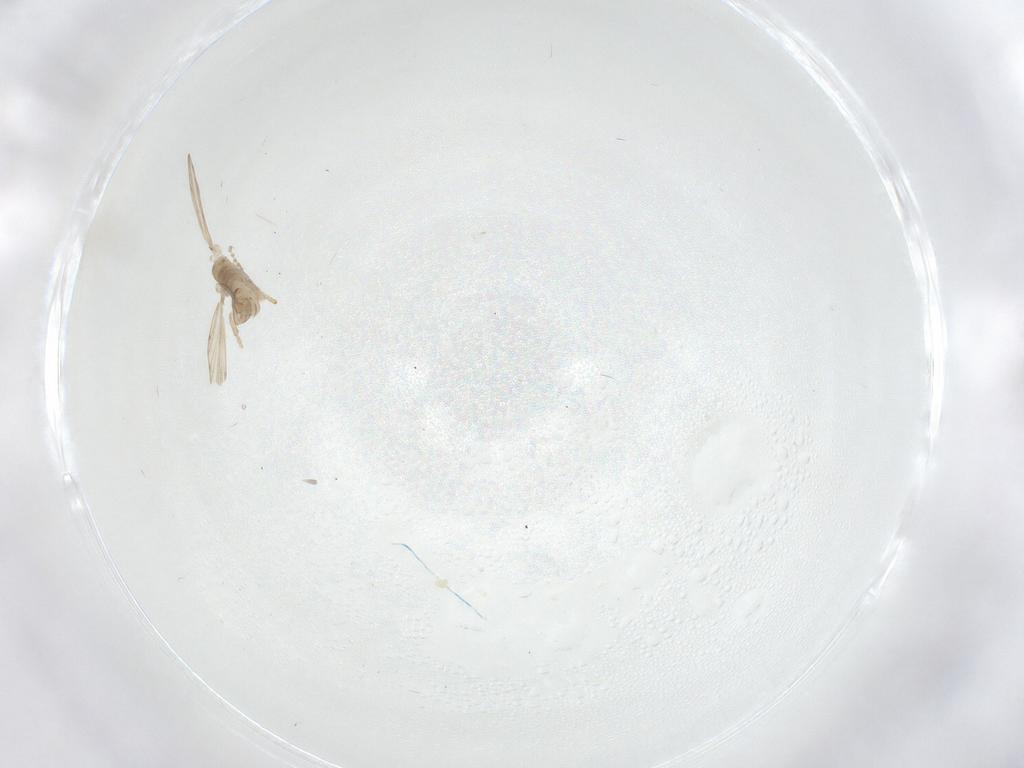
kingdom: Animalia
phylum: Arthropoda
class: Insecta
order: Diptera
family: Psychodidae
